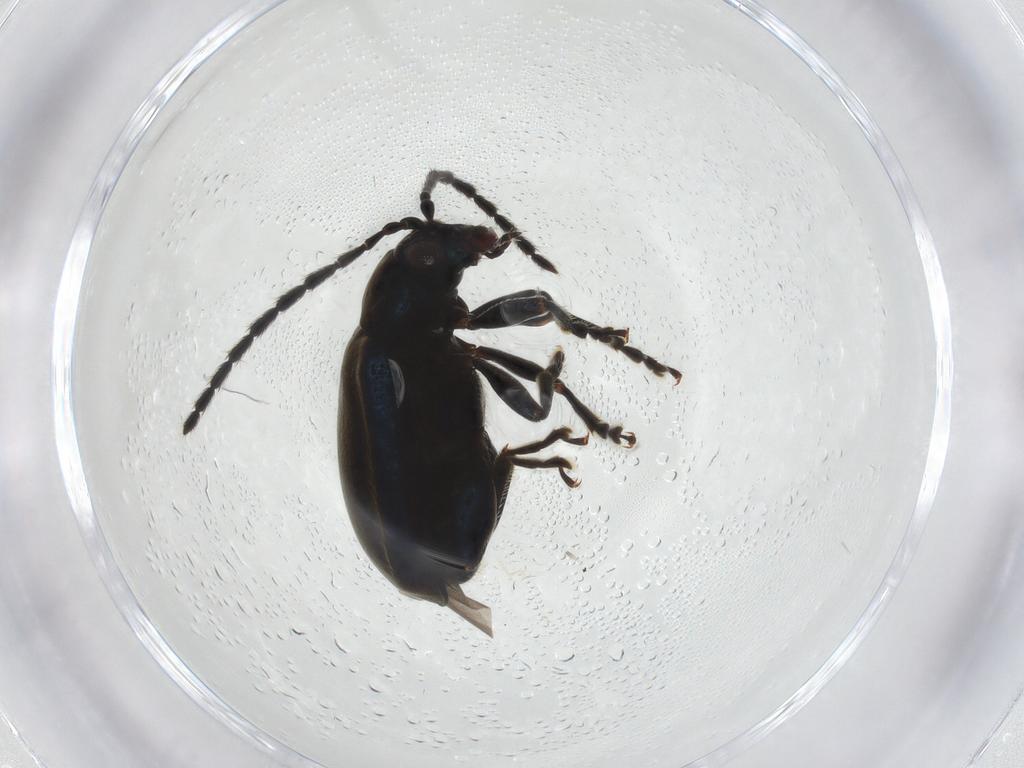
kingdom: Animalia
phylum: Arthropoda
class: Insecta
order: Coleoptera
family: Chrysomelidae
